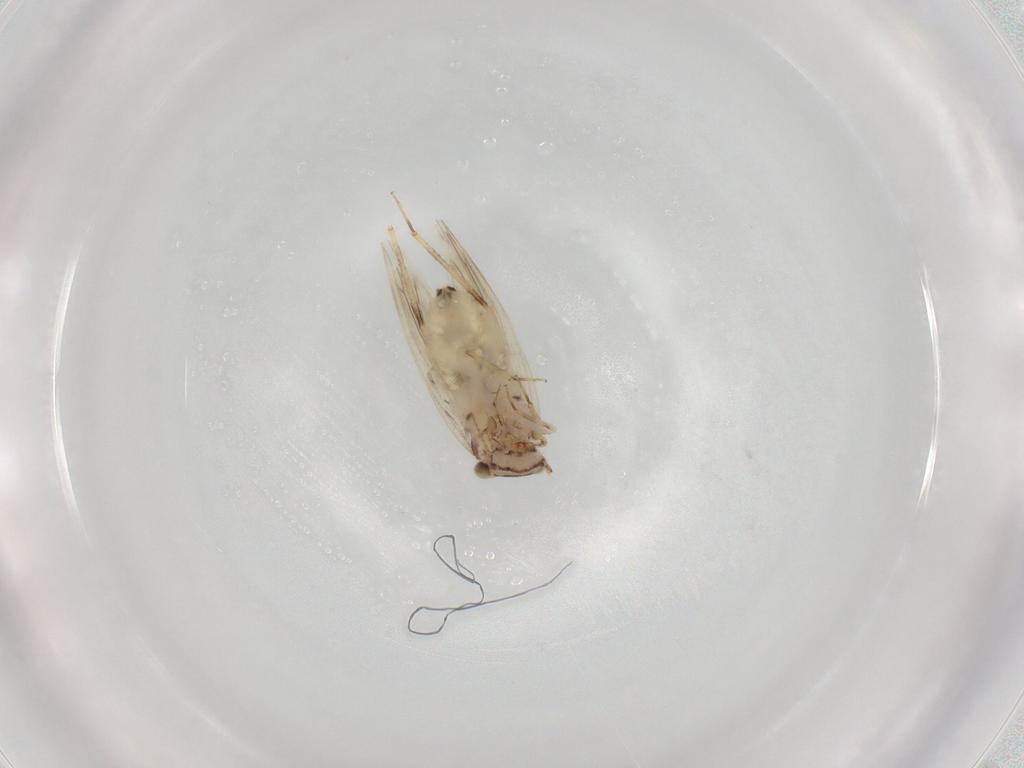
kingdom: Animalia
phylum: Arthropoda
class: Insecta
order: Psocodea
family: Lepidopsocidae
